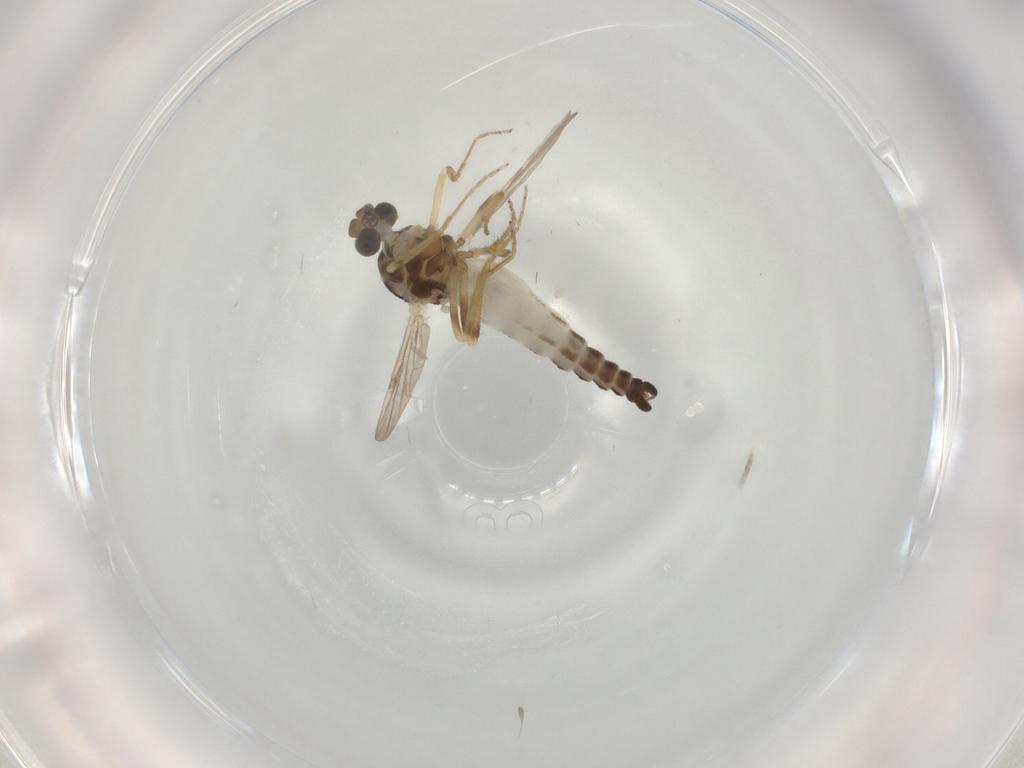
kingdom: Animalia
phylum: Arthropoda
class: Insecta
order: Diptera
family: Ceratopogonidae
